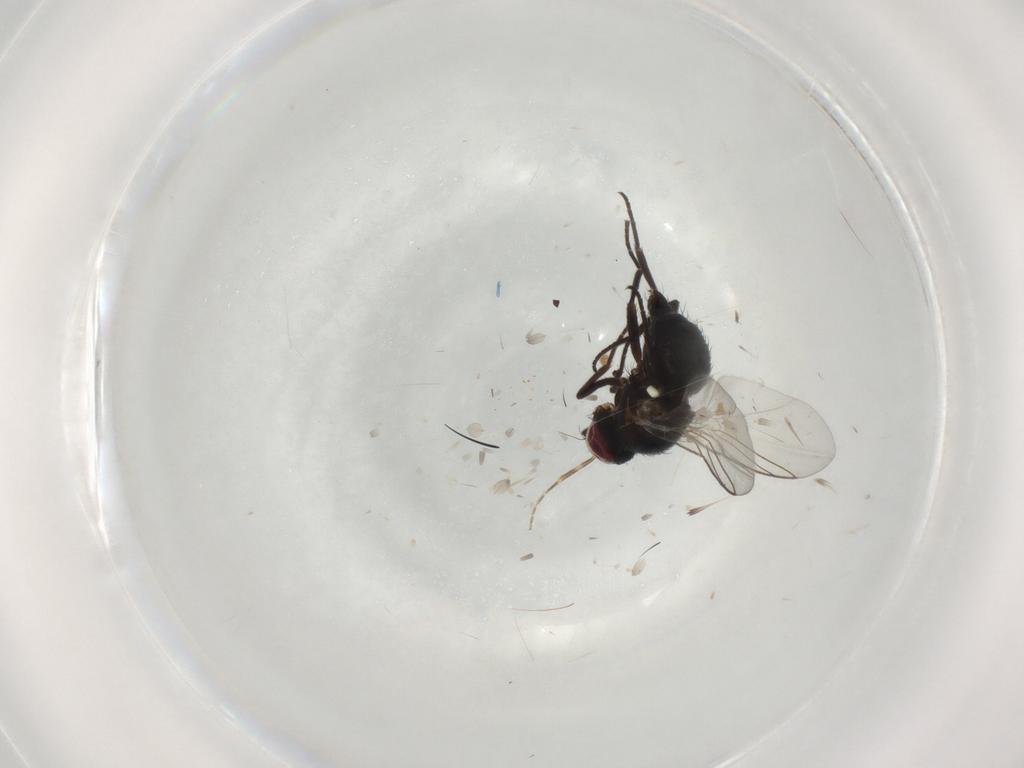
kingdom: Animalia
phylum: Arthropoda
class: Insecta
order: Diptera
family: Agromyzidae
